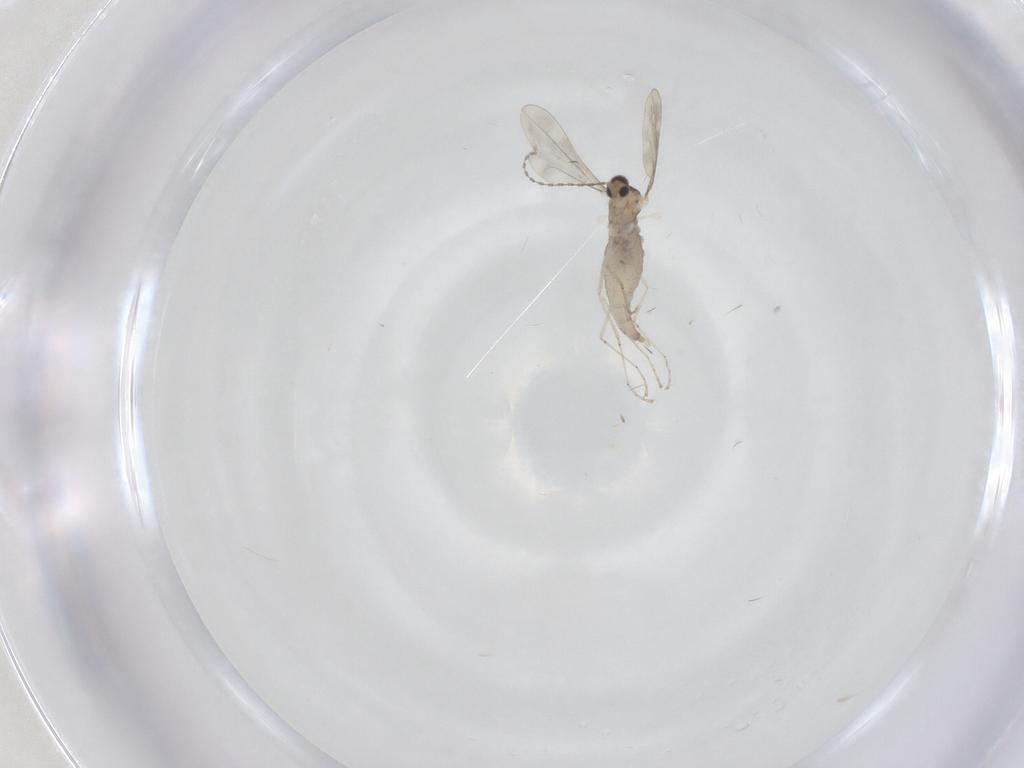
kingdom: Animalia
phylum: Arthropoda
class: Insecta
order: Diptera
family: Cecidomyiidae
